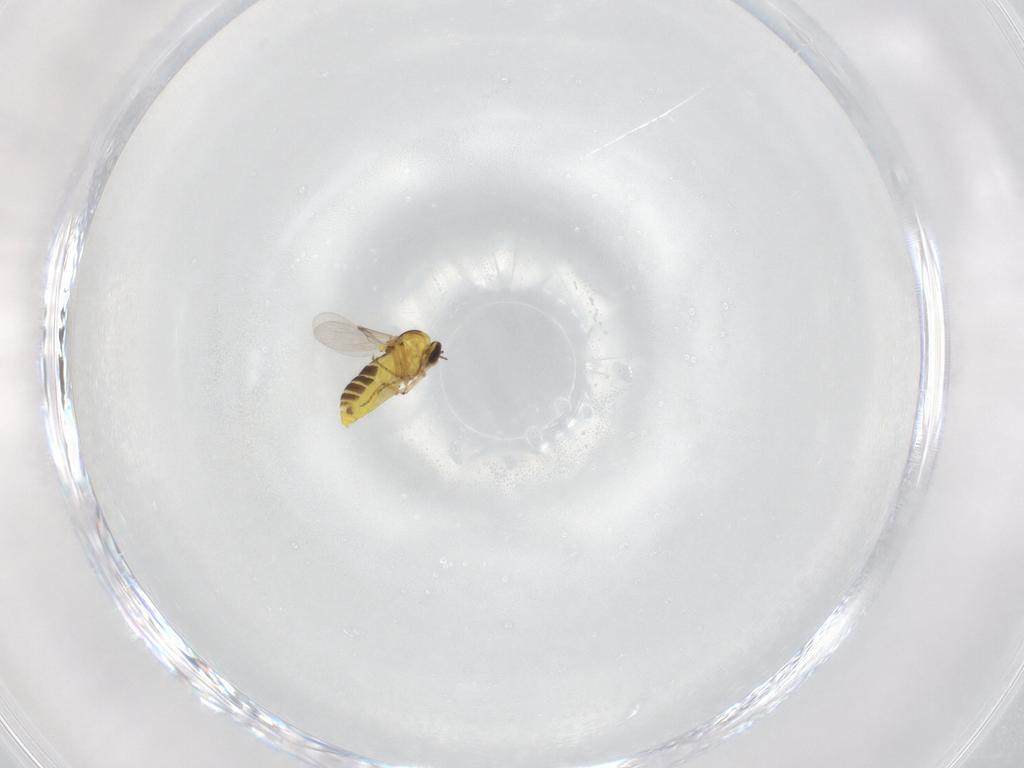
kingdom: Animalia
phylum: Arthropoda
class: Insecta
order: Diptera
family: Ceratopogonidae
